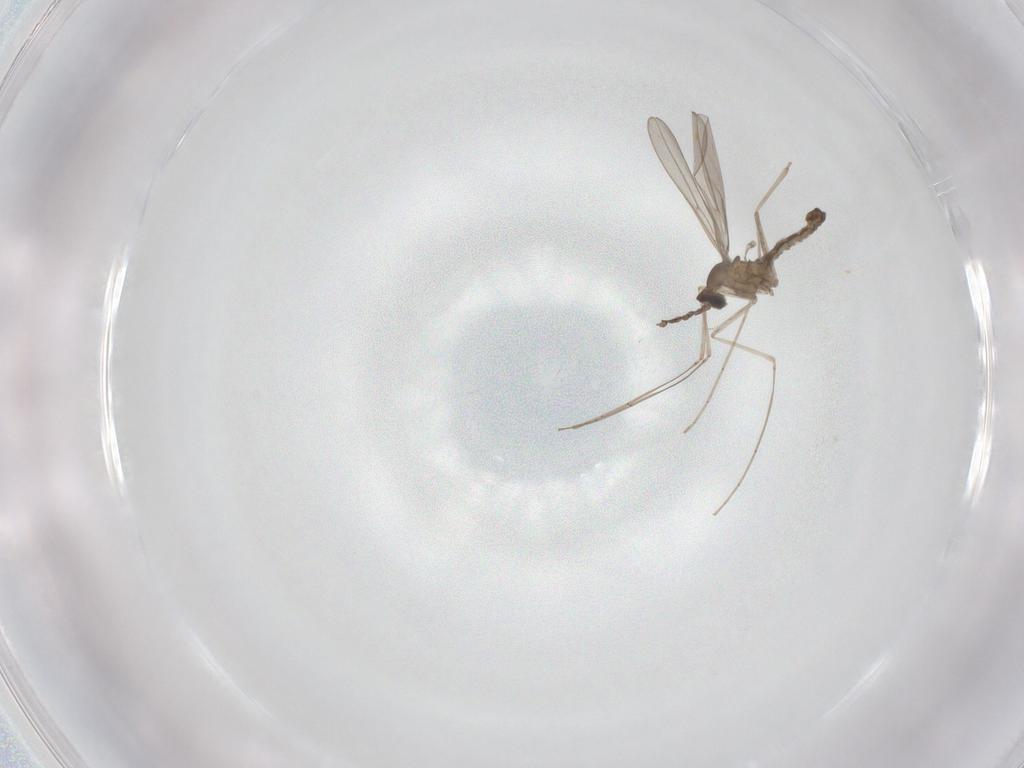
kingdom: Animalia
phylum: Arthropoda
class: Insecta
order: Diptera
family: Cecidomyiidae
